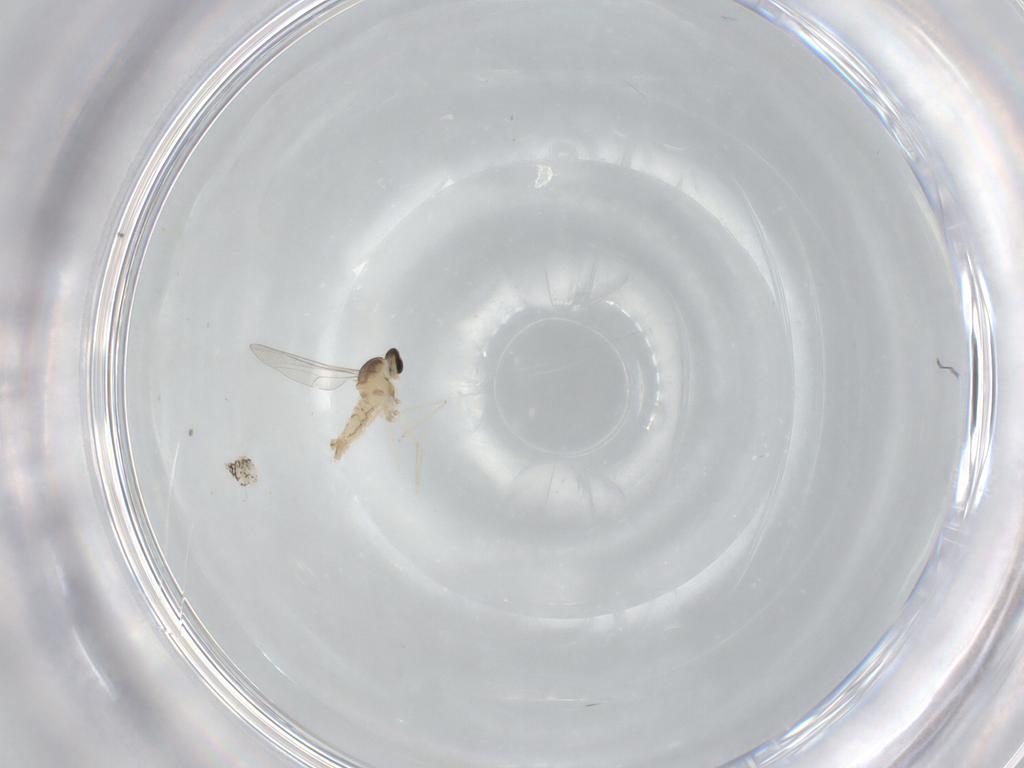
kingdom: Animalia
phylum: Arthropoda
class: Insecta
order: Diptera
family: Cecidomyiidae
